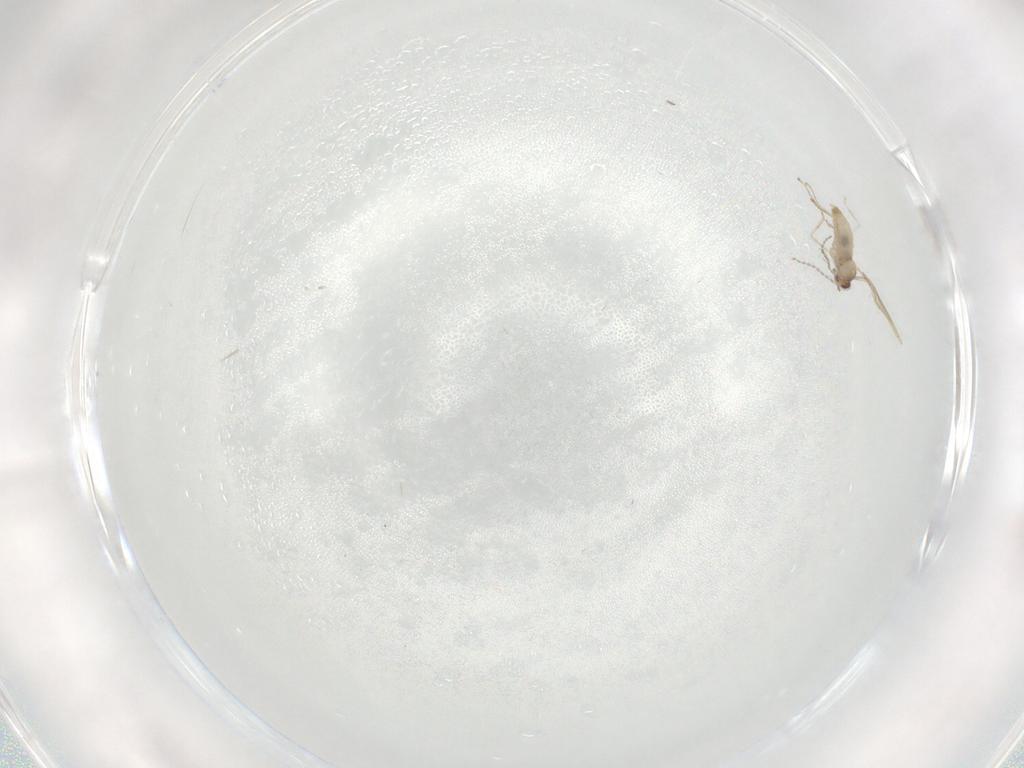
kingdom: Animalia
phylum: Arthropoda
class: Insecta
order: Diptera
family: Cecidomyiidae
